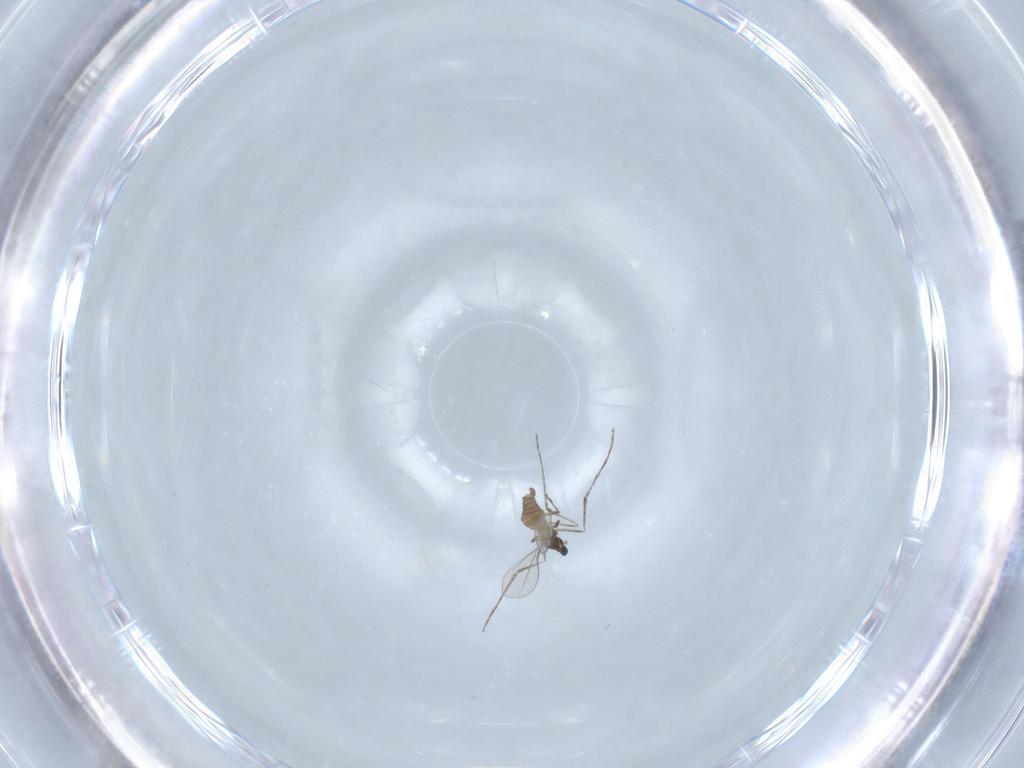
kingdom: Animalia
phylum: Arthropoda
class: Insecta
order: Diptera
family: Cecidomyiidae
